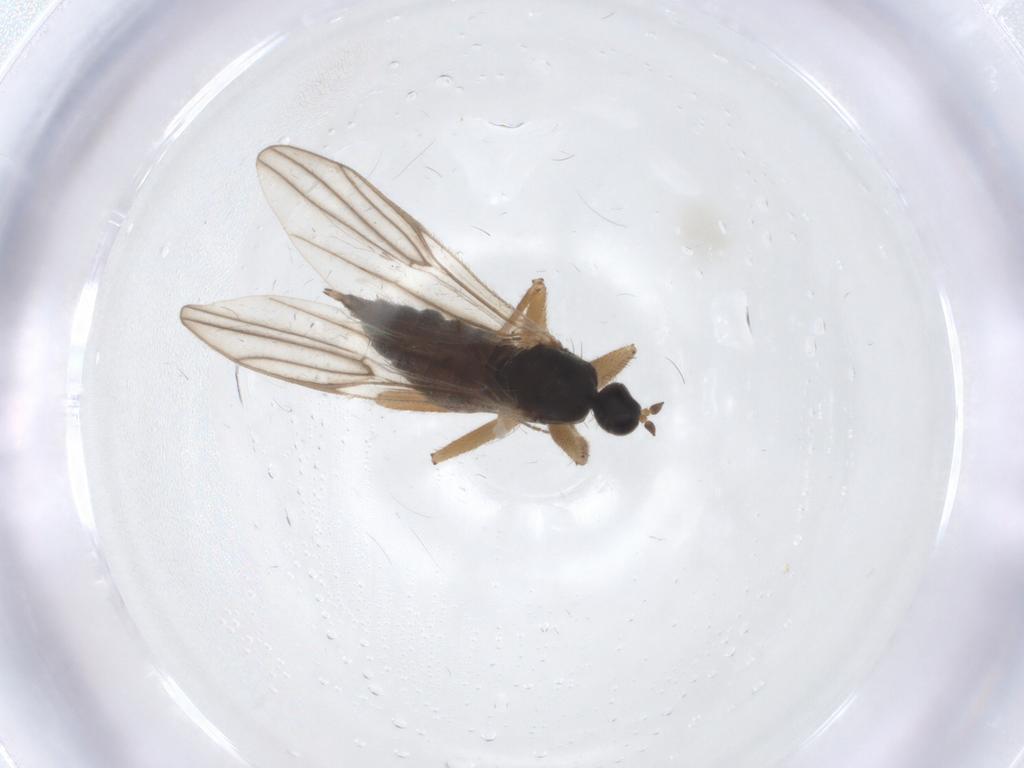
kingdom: Animalia
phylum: Arthropoda
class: Insecta
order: Diptera
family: Hybotidae
